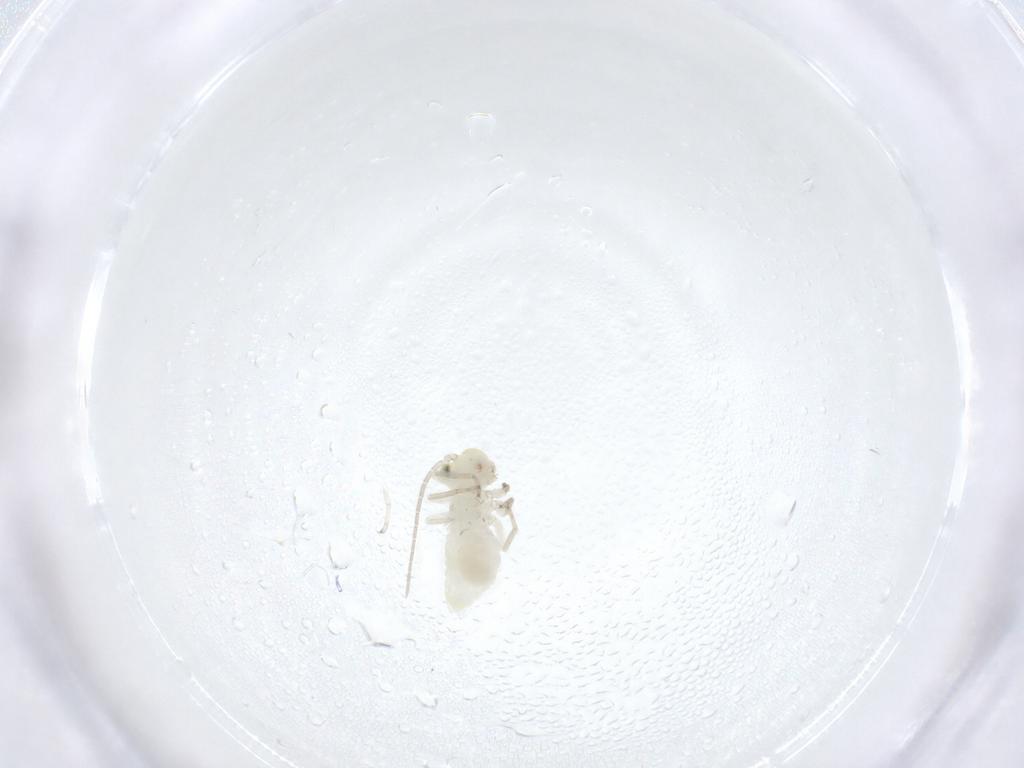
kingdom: Animalia
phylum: Arthropoda
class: Insecta
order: Psocodea
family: Caeciliusidae
